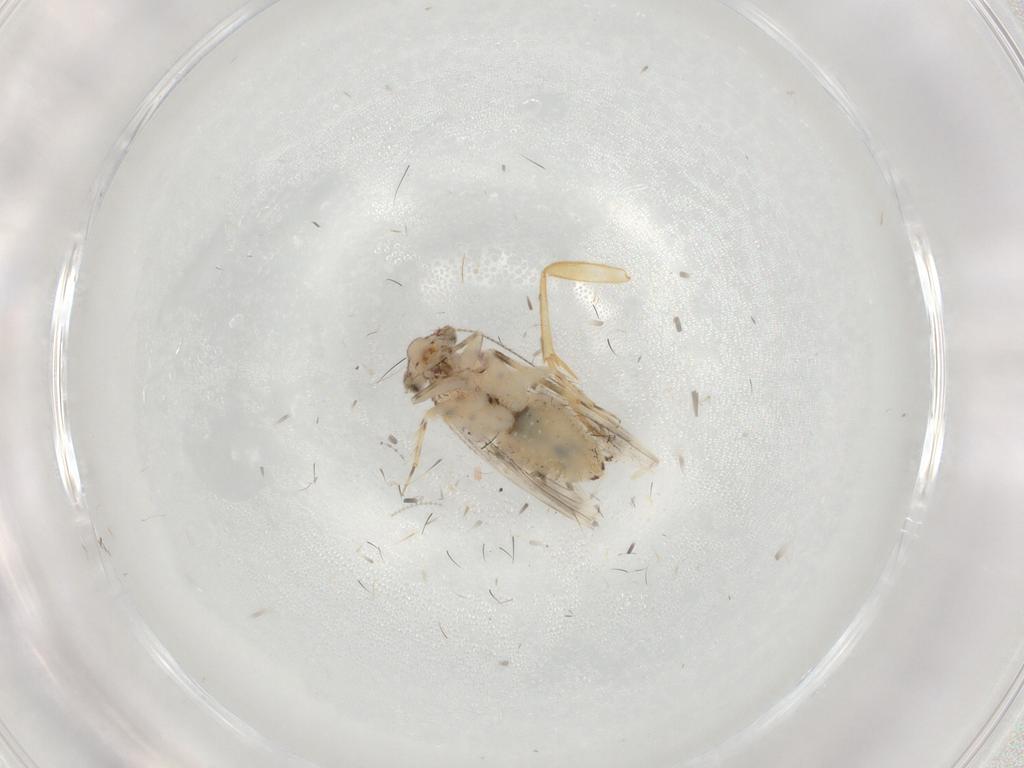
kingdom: Animalia
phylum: Arthropoda
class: Insecta
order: Psocodea
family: Lepidopsocidae
